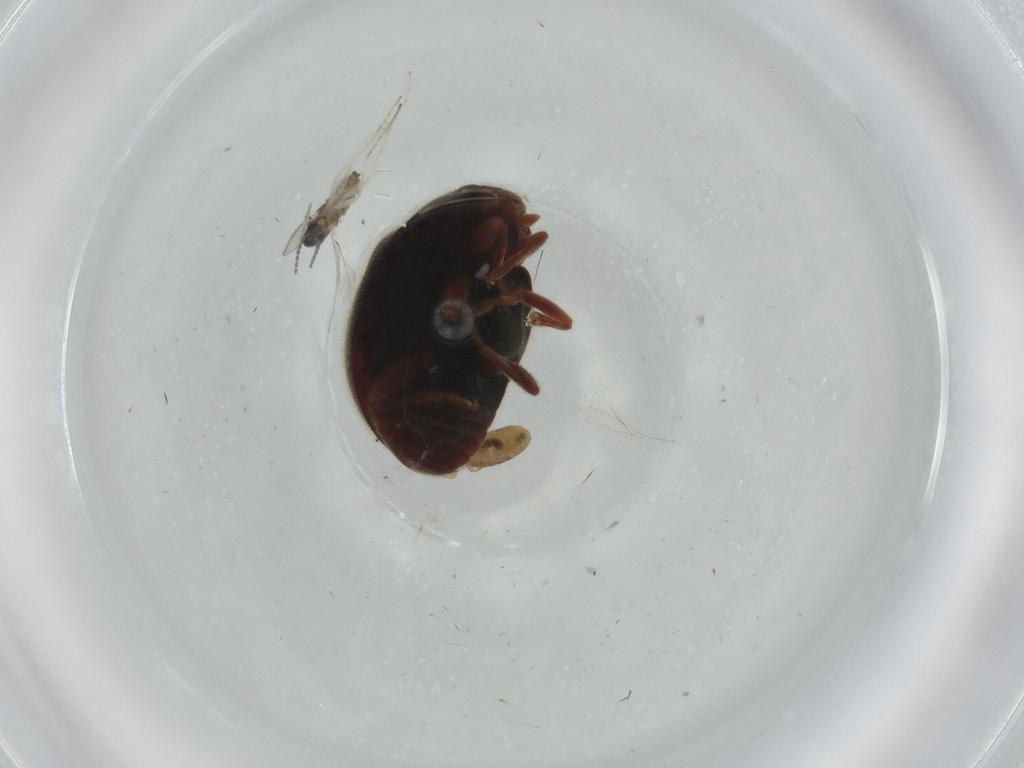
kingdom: Animalia
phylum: Arthropoda
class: Insecta
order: Coleoptera
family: Coccinellidae
